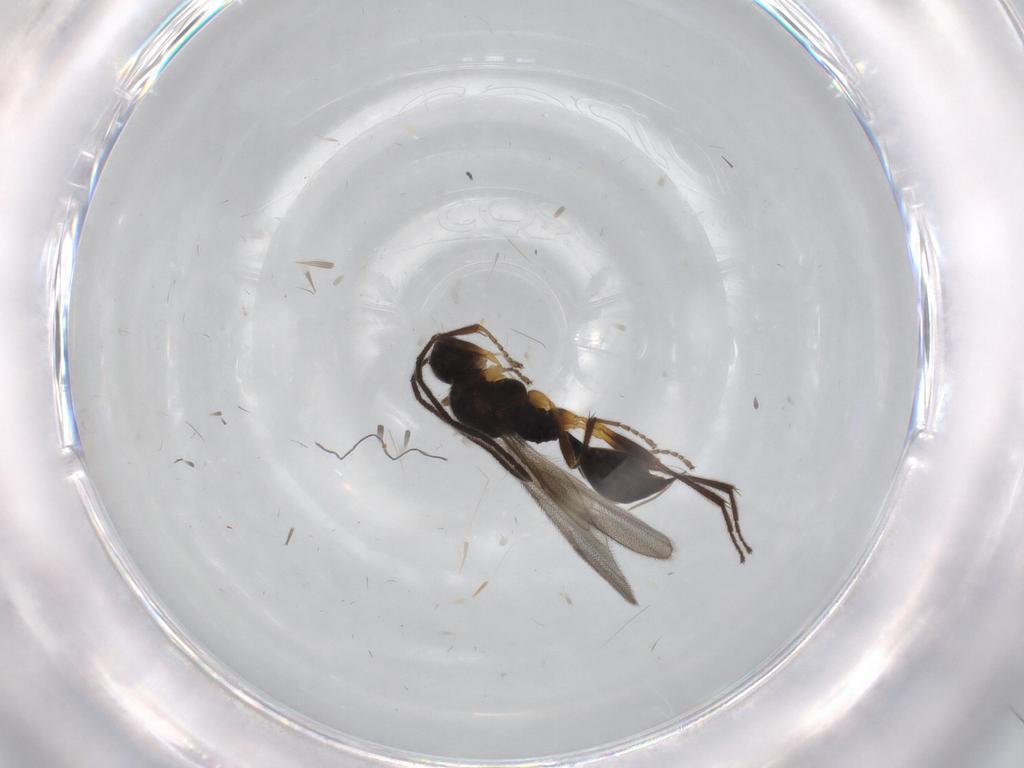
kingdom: Animalia
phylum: Arthropoda
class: Insecta
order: Hymenoptera
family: Proctotrupidae
